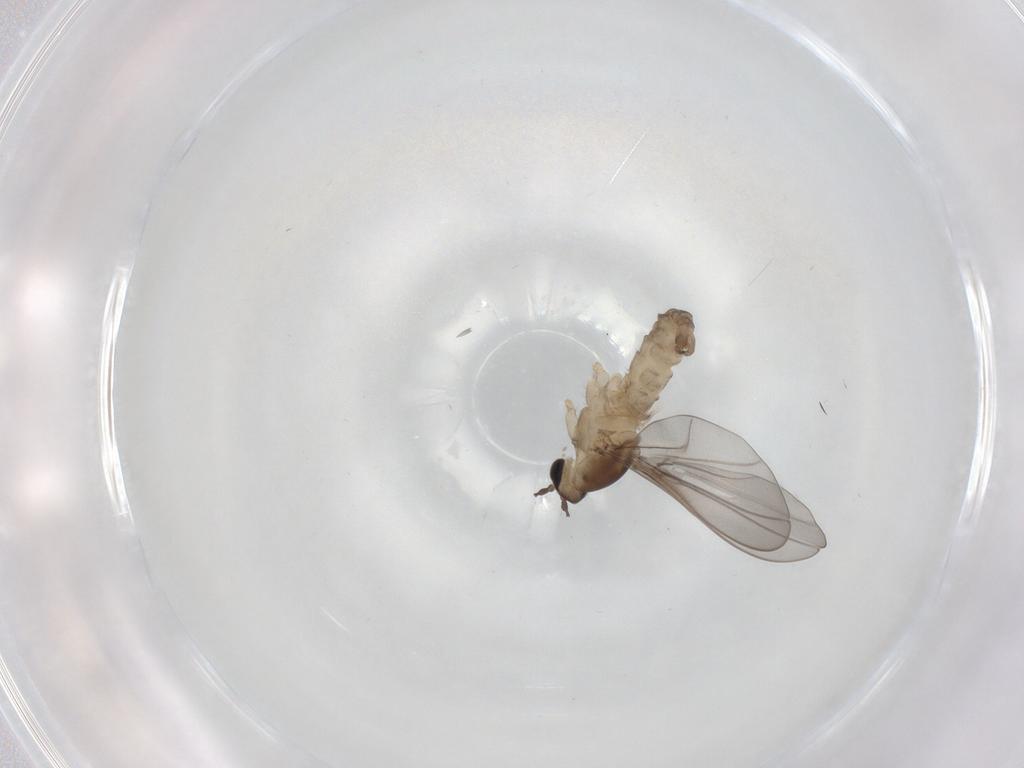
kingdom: Animalia
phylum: Arthropoda
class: Insecta
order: Diptera
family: Cecidomyiidae
